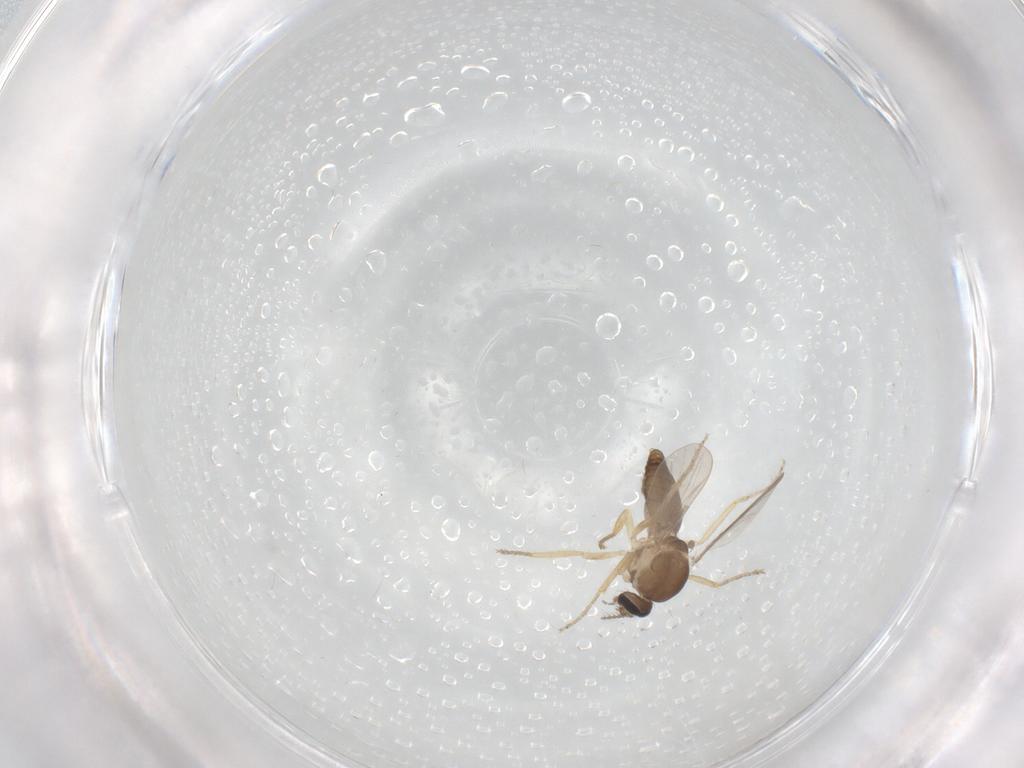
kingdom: Animalia
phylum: Arthropoda
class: Insecta
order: Diptera
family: Ceratopogonidae
